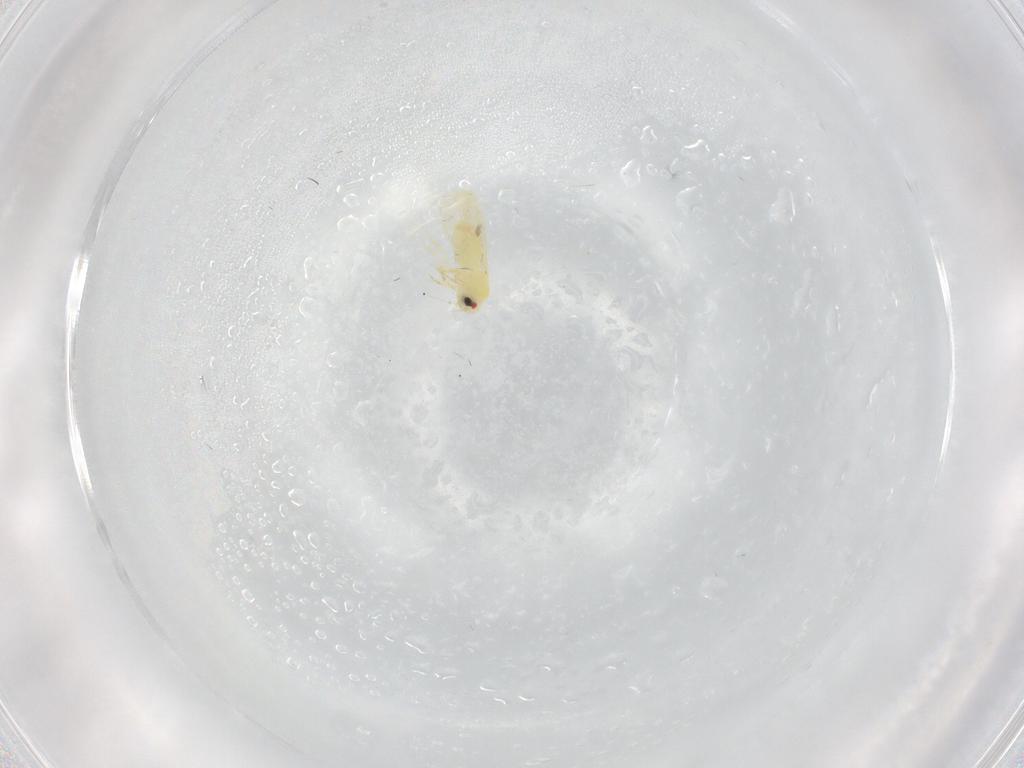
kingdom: Animalia
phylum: Arthropoda
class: Insecta
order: Hemiptera
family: Aleyrodidae
